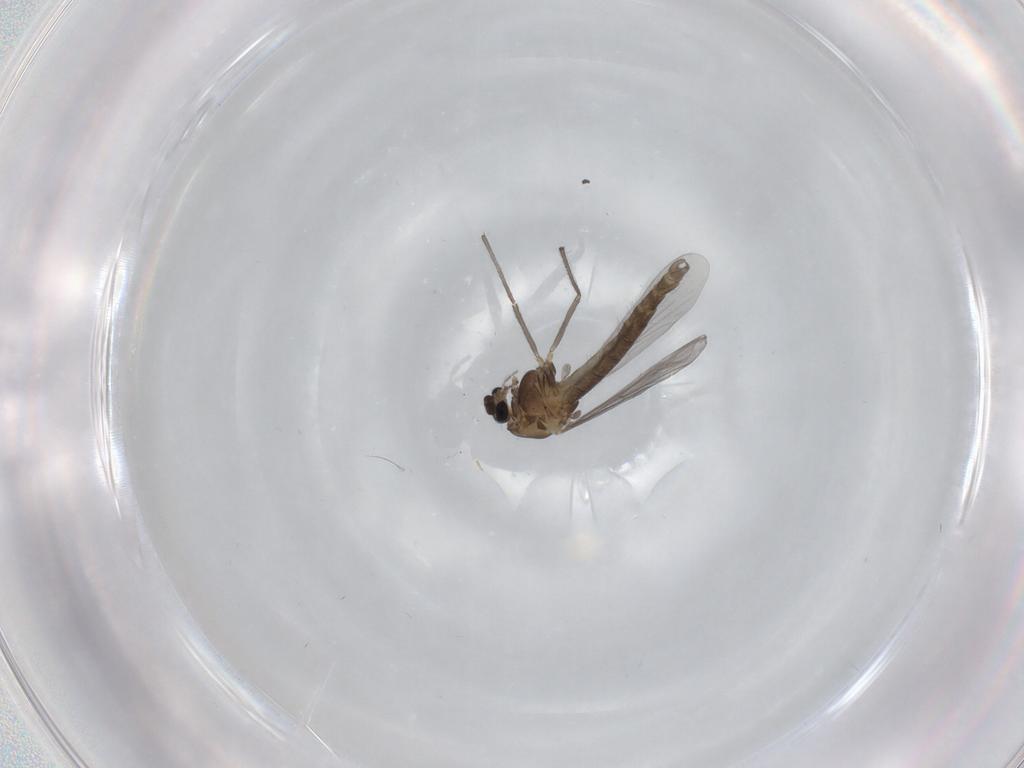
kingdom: Animalia
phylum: Arthropoda
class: Insecta
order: Diptera
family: Chironomidae
